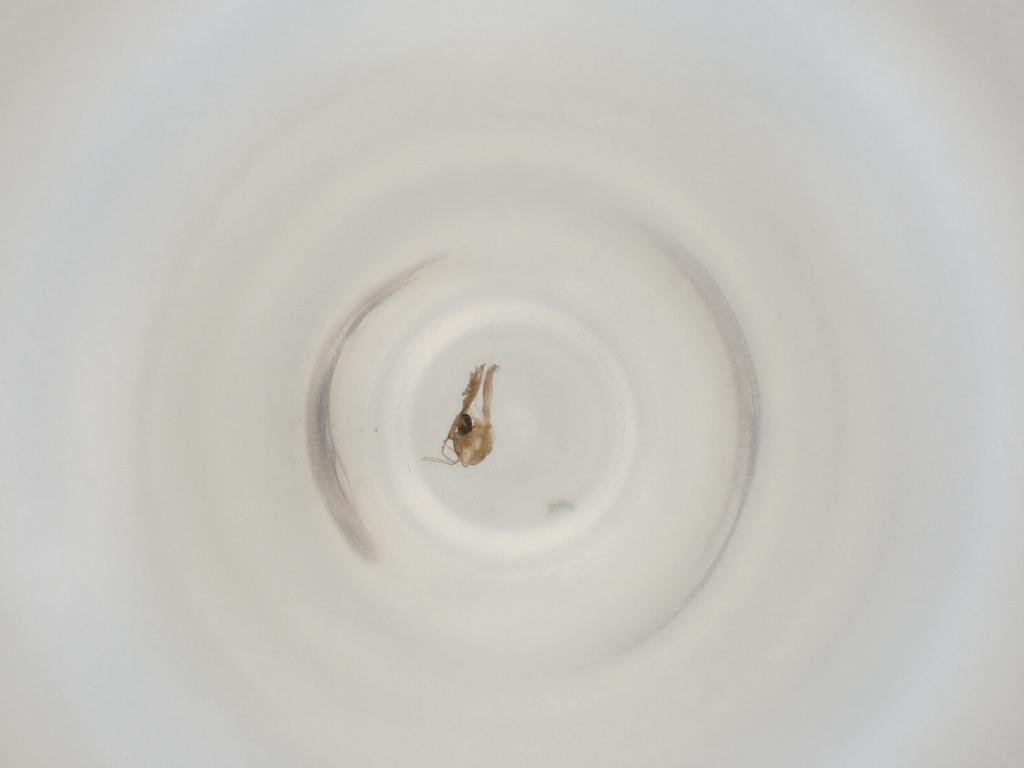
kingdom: Animalia
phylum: Arthropoda
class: Insecta
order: Diptera
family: Cecidomyiidae
